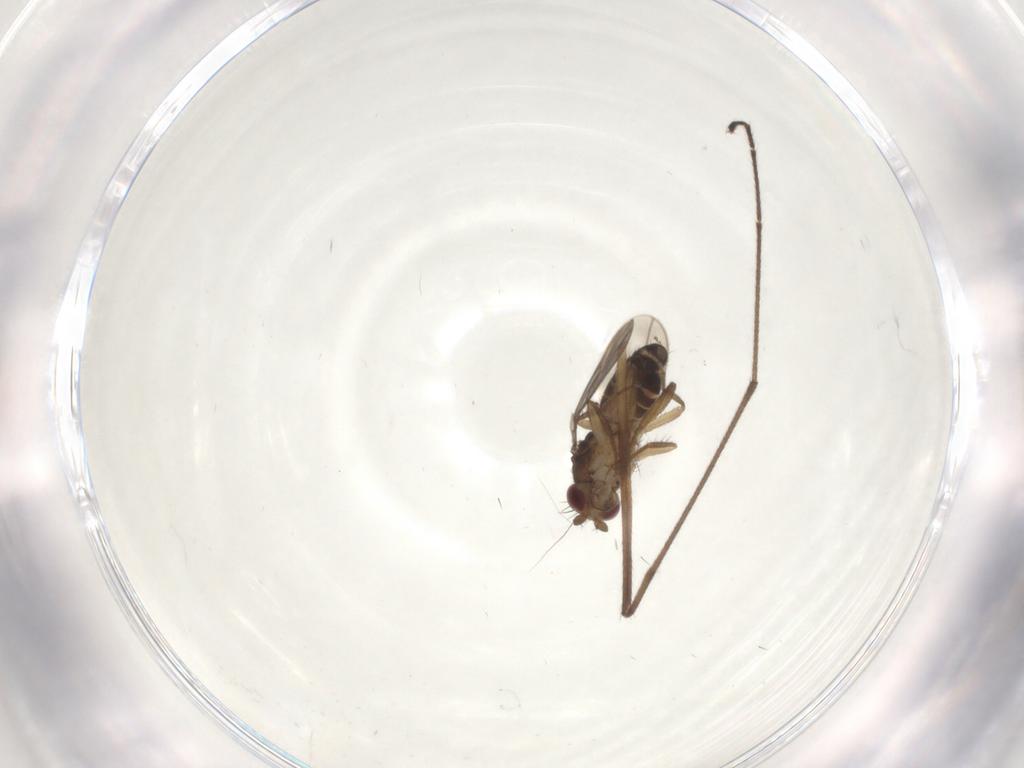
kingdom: Animalia
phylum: Arthropoda
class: Insecta
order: Diptera
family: Sphaeroceridae
